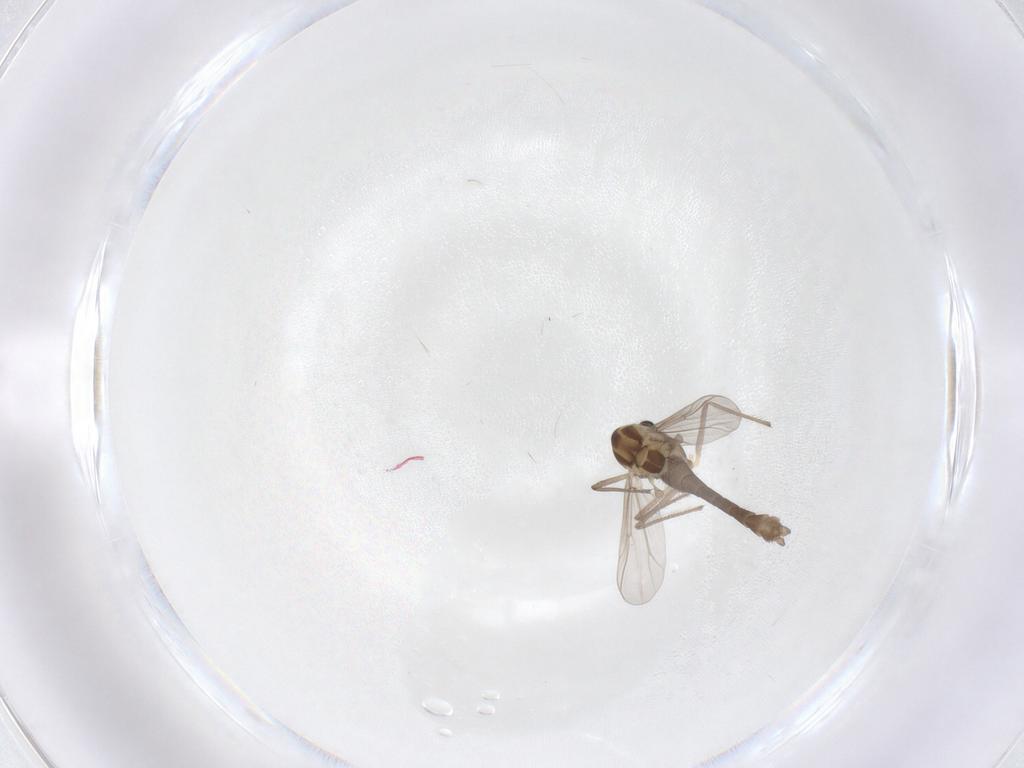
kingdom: Animalia
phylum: Arthropoda
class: Insecta
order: Diptera
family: Chironomidae
